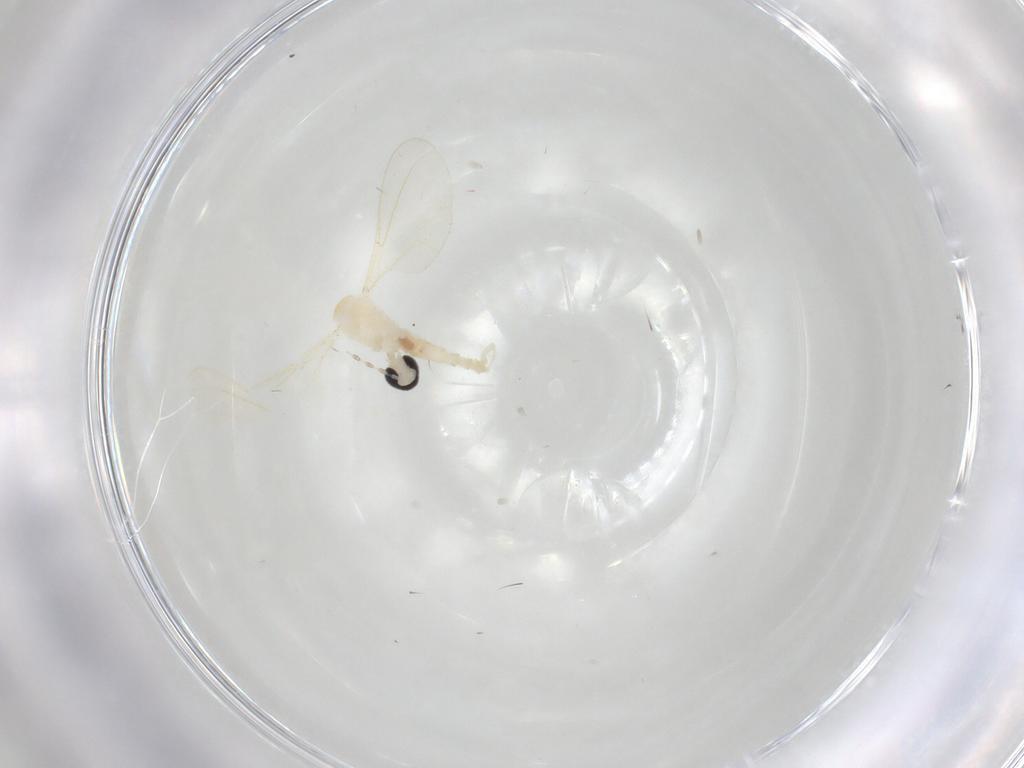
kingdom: Animalia
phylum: Arthropoda
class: Insecta
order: Diptera
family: Cecidomyiidae
